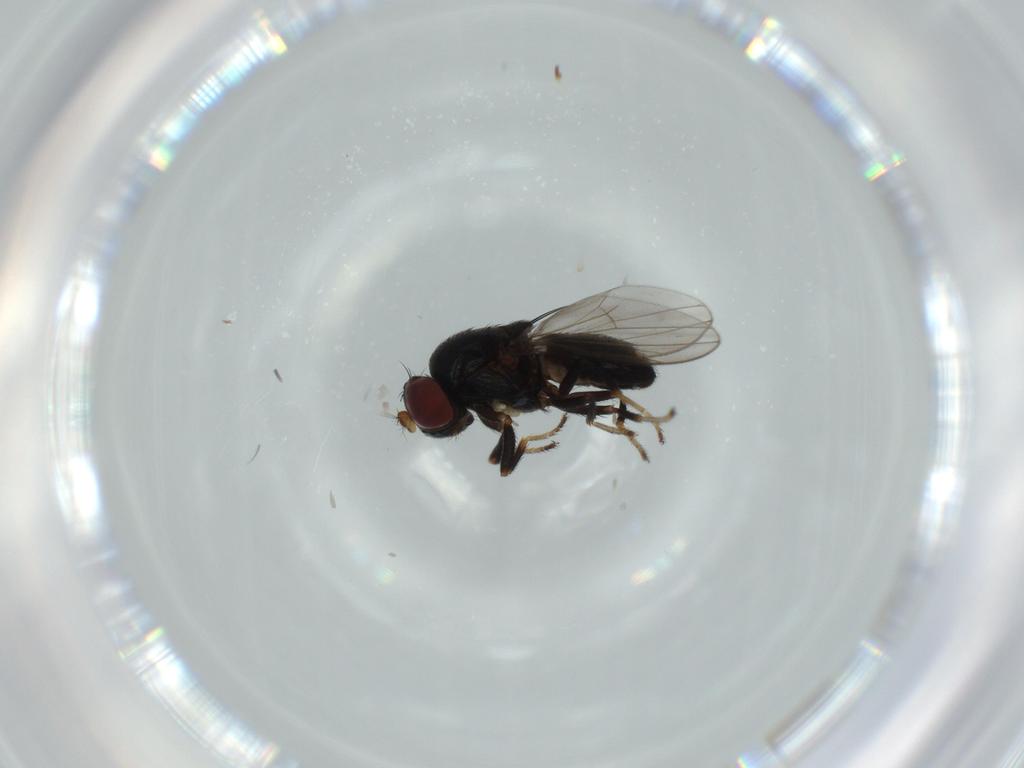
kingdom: Animalia
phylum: Arthropoda
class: Insecta
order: Diptera
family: Ephydridae
